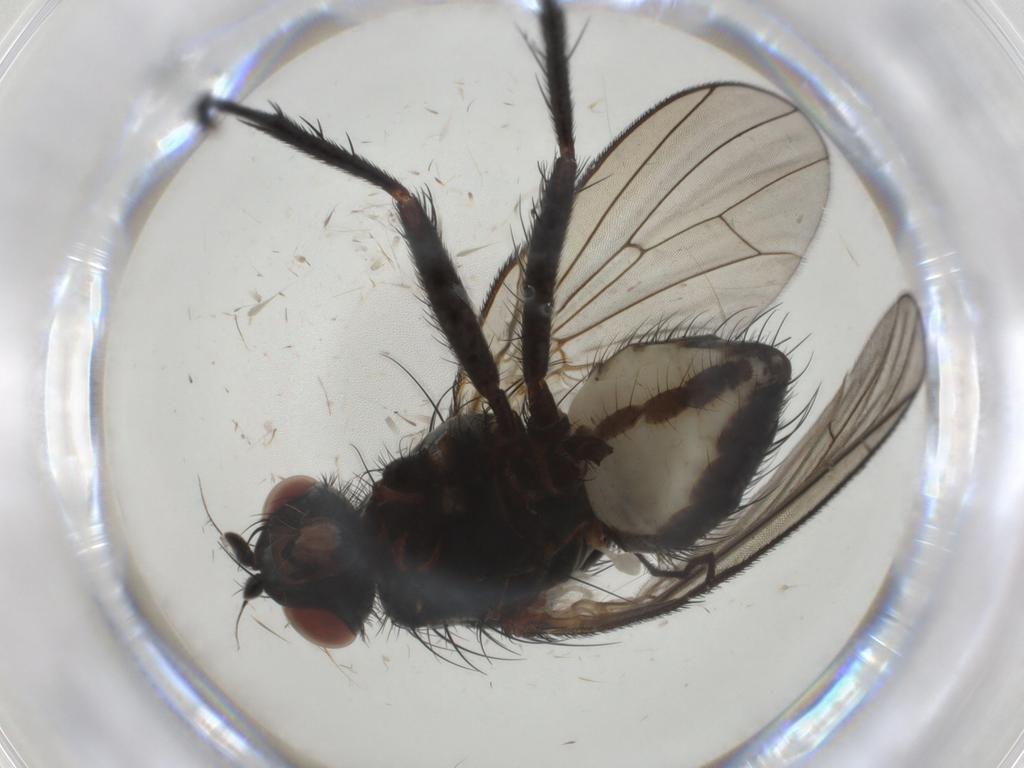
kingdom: Animalia
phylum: Arthropoda
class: Insecta
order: Diptera
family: Anthomyiidae
